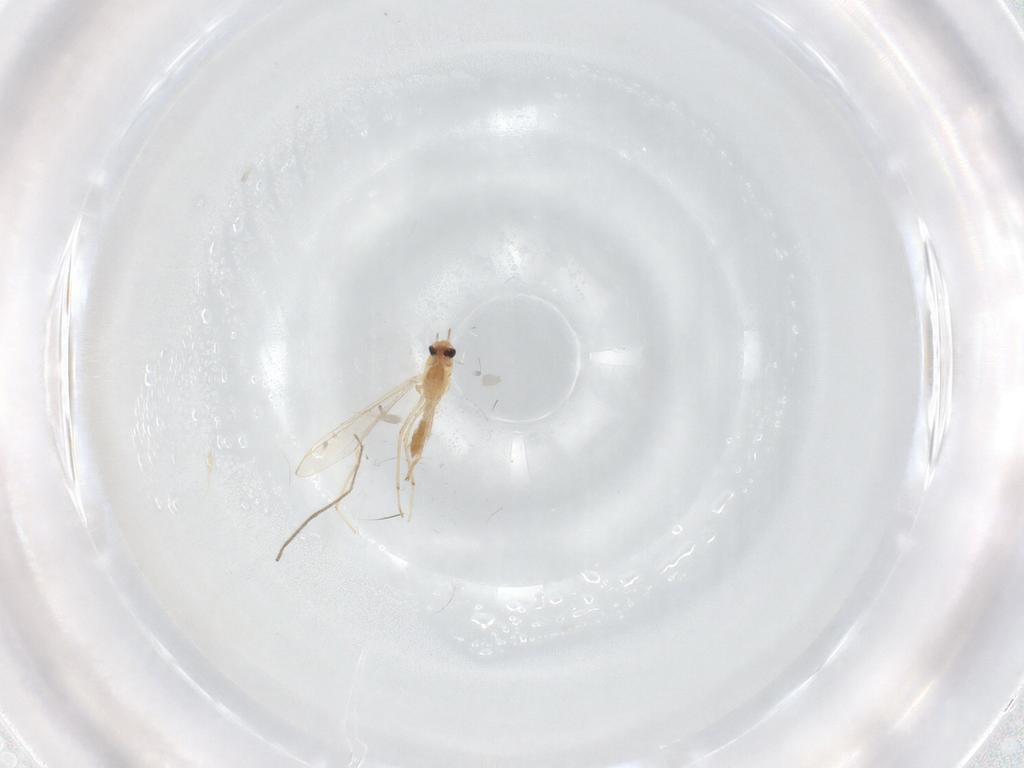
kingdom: Animalia
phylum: Arthropoda
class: Insecta
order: Diptera
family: Chironomidae
